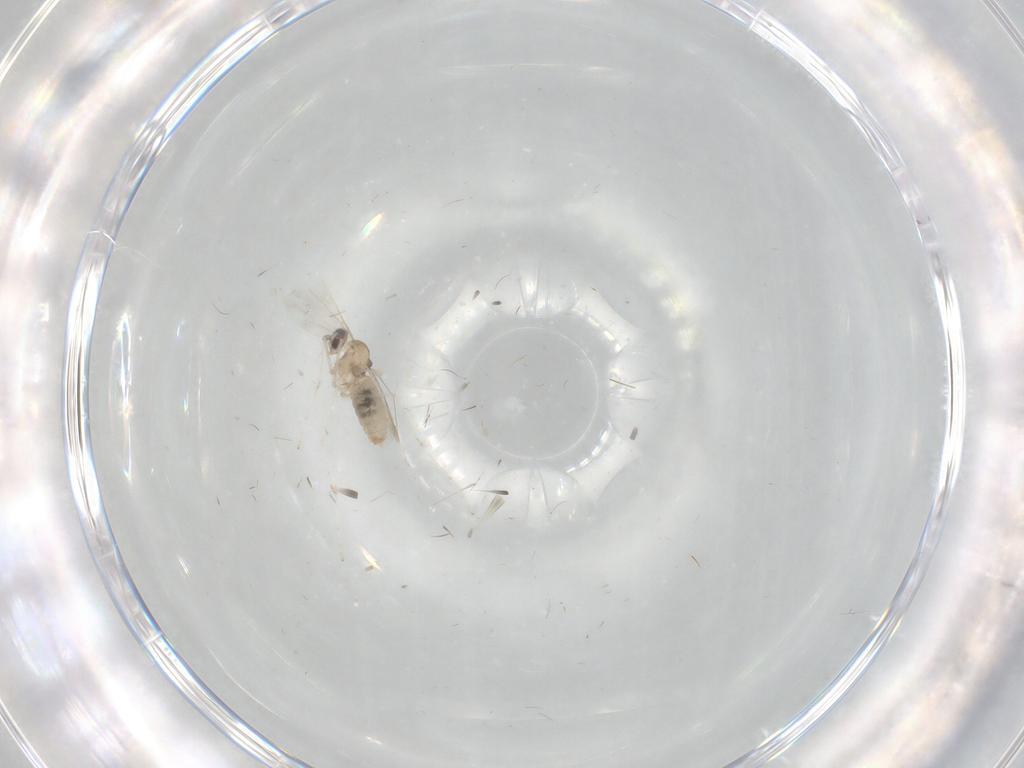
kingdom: Animalia
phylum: Arthropoda
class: Insecta
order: Diptera
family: Cecidomyiidae
